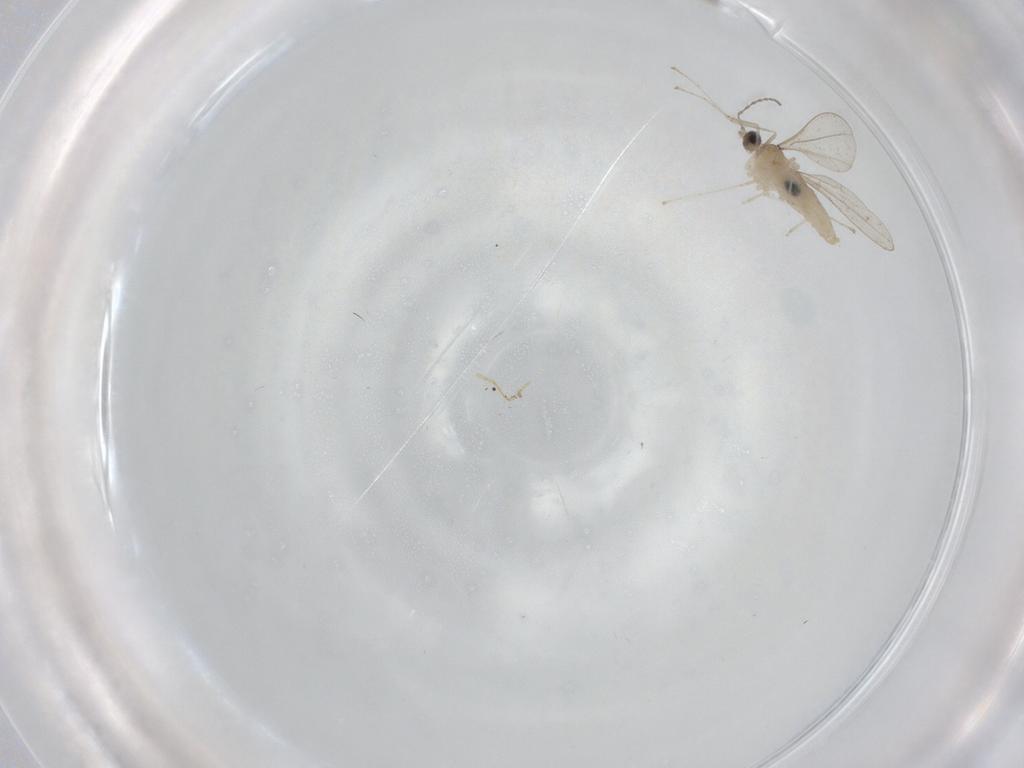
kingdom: Animalia
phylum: Arthropoda
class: Insecta
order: Diptera
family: Cecidomyiidae
